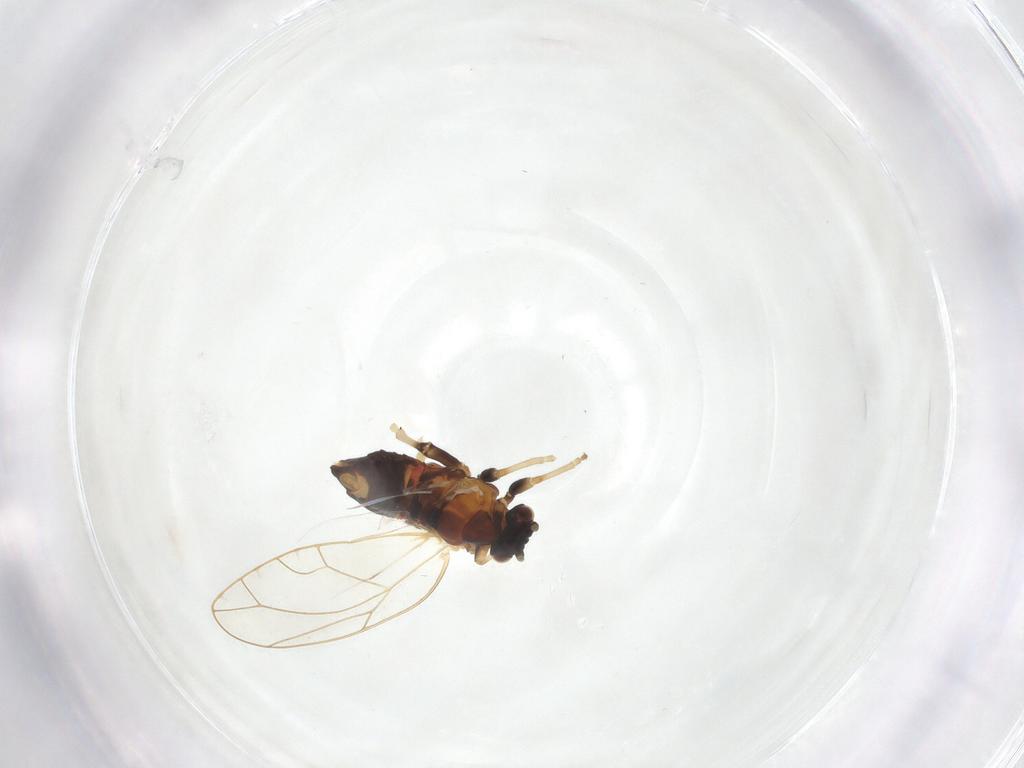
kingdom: Animalia
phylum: Arthropoda
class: Insecta
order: Hemiptera
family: Triozidae
